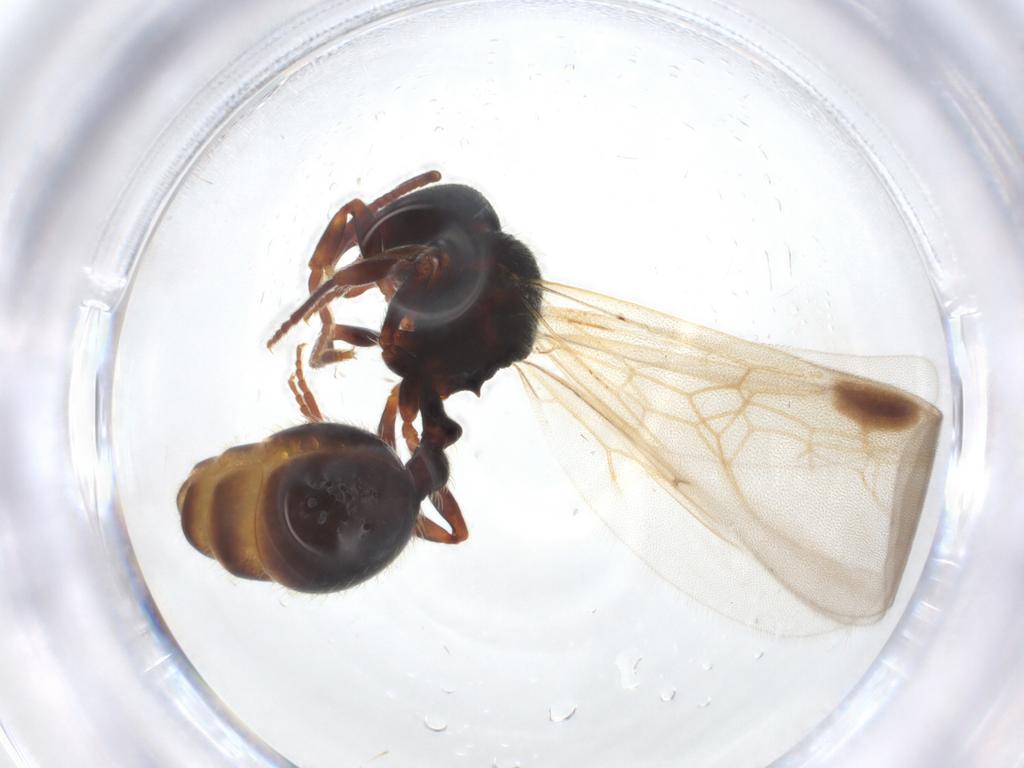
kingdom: Animalia
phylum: Arthropoda
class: Insecta
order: Hymenoptera
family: Formicidae
